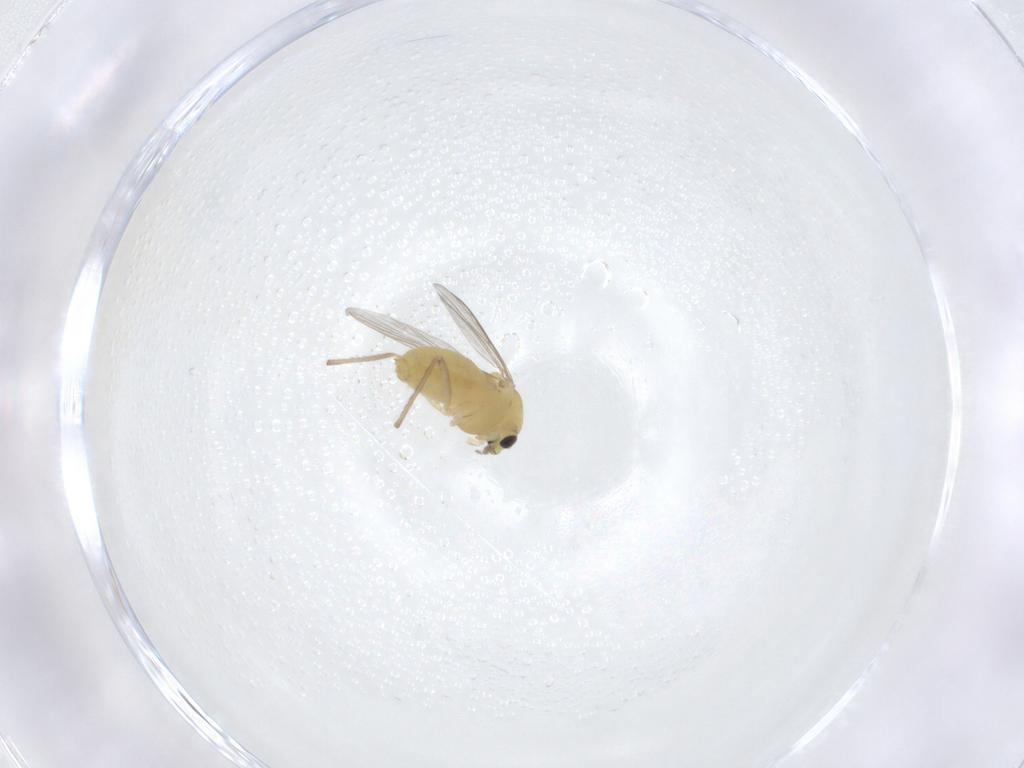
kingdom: Animalia
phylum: Arthropoda
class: Insecta
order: Diptera
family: Chironomidae
